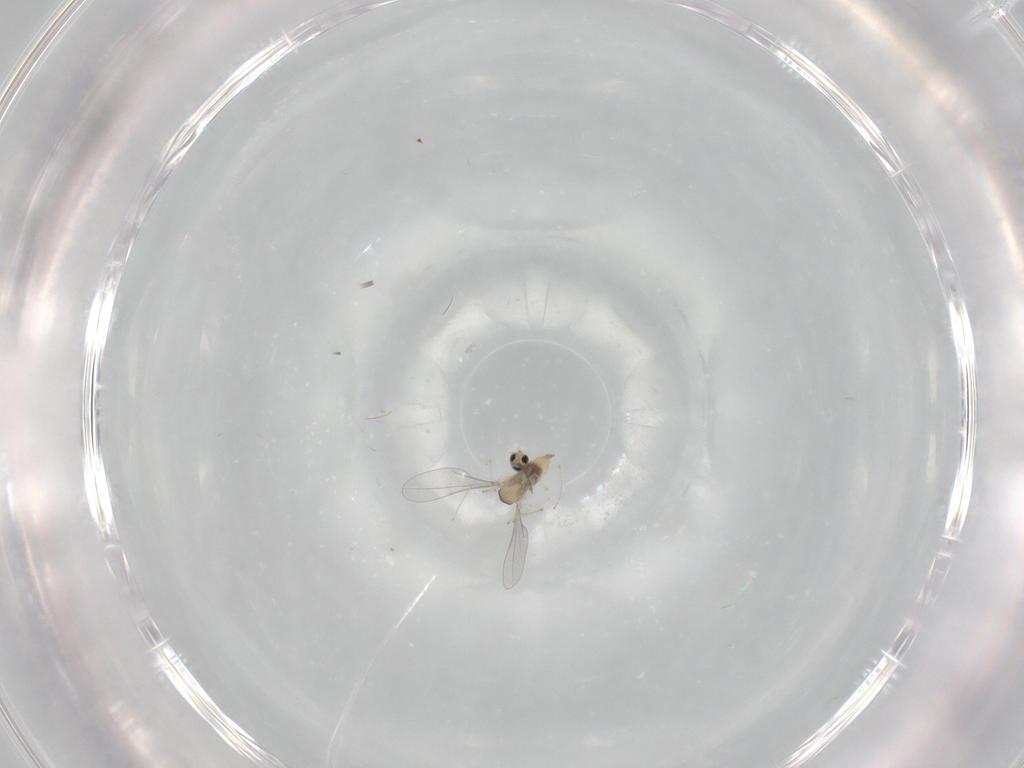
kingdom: Animalia
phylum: Arthropoda
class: Insecta
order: Diptera
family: Cecidomyiidae
